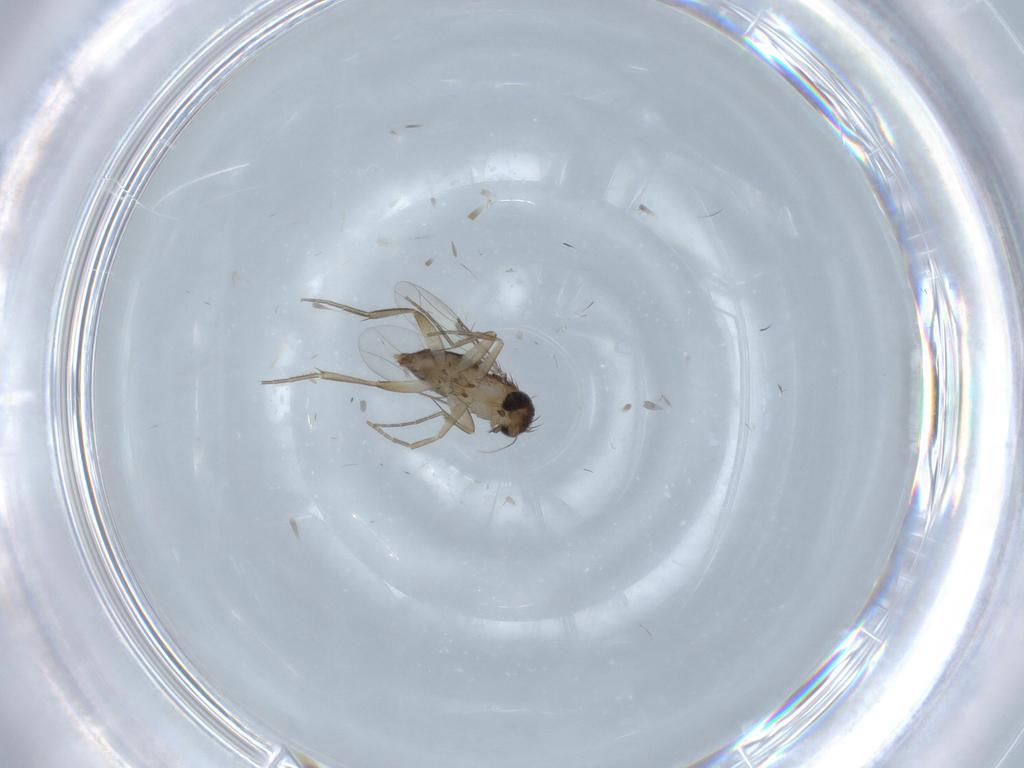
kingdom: Animalia
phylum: Arthropoda
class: Insecta
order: Diptera
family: Phoridae
